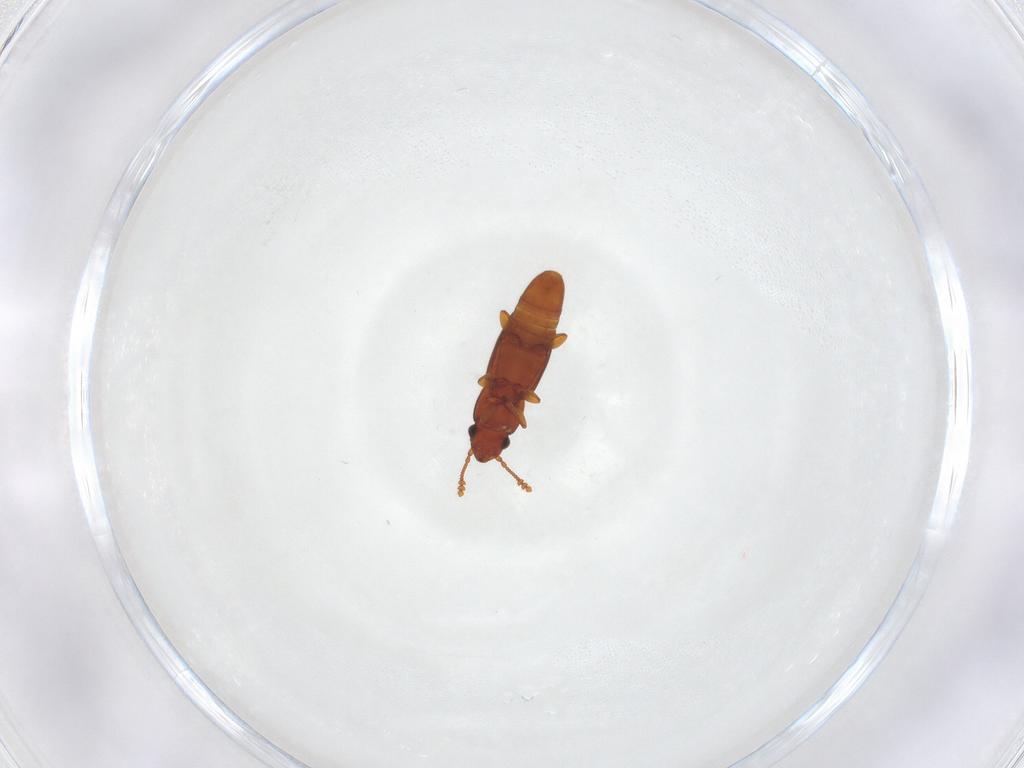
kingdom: Animalia
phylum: Arthropoda
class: Insecta
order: Coleoptera
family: Smicripidae
